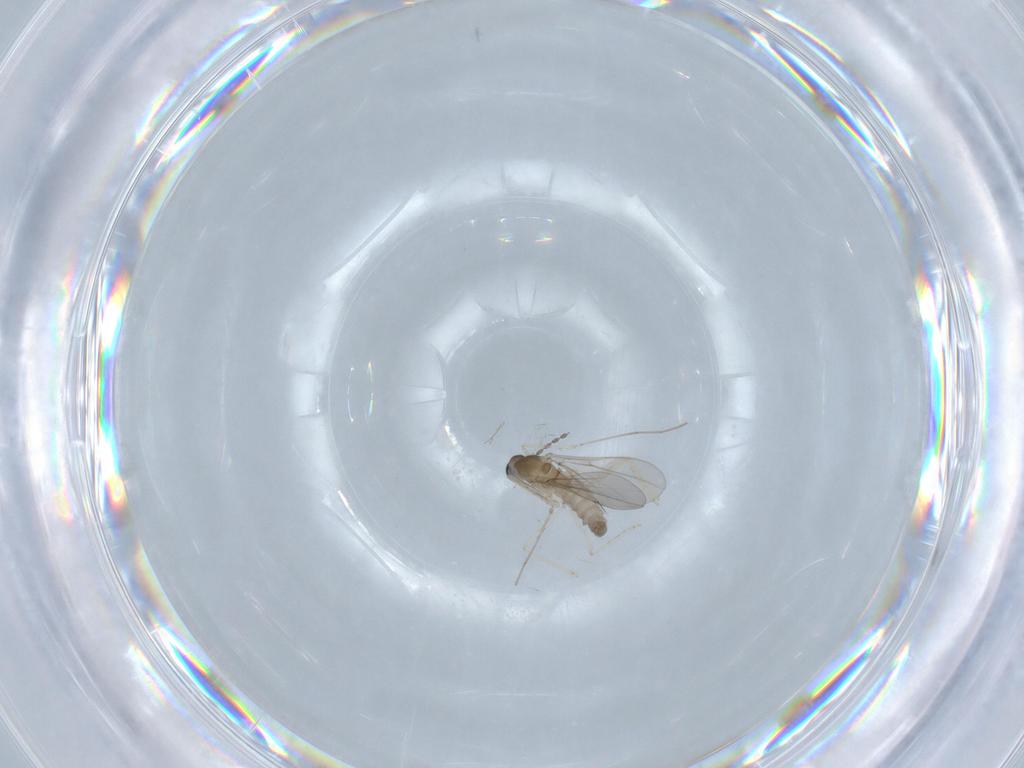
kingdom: Animalia
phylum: Arthropoda
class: Insecta
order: Diptera
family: Cecidomyiidae
